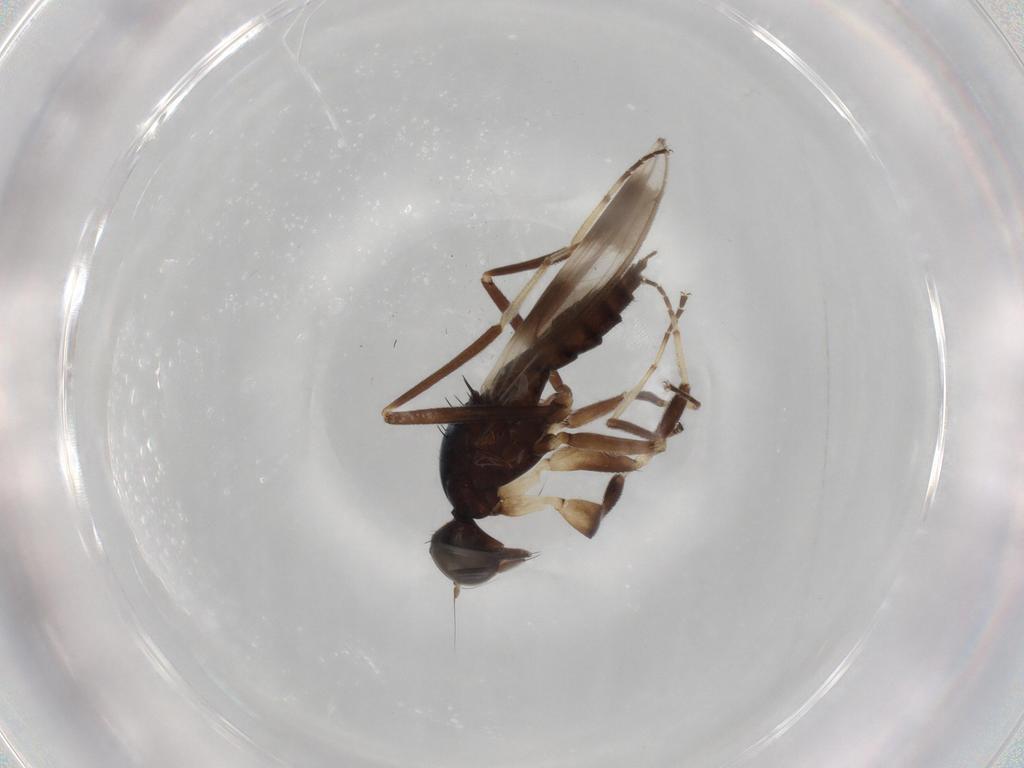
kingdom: Animalia
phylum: Arthropoda
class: Insecta
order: Diptera
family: Hybotidae
